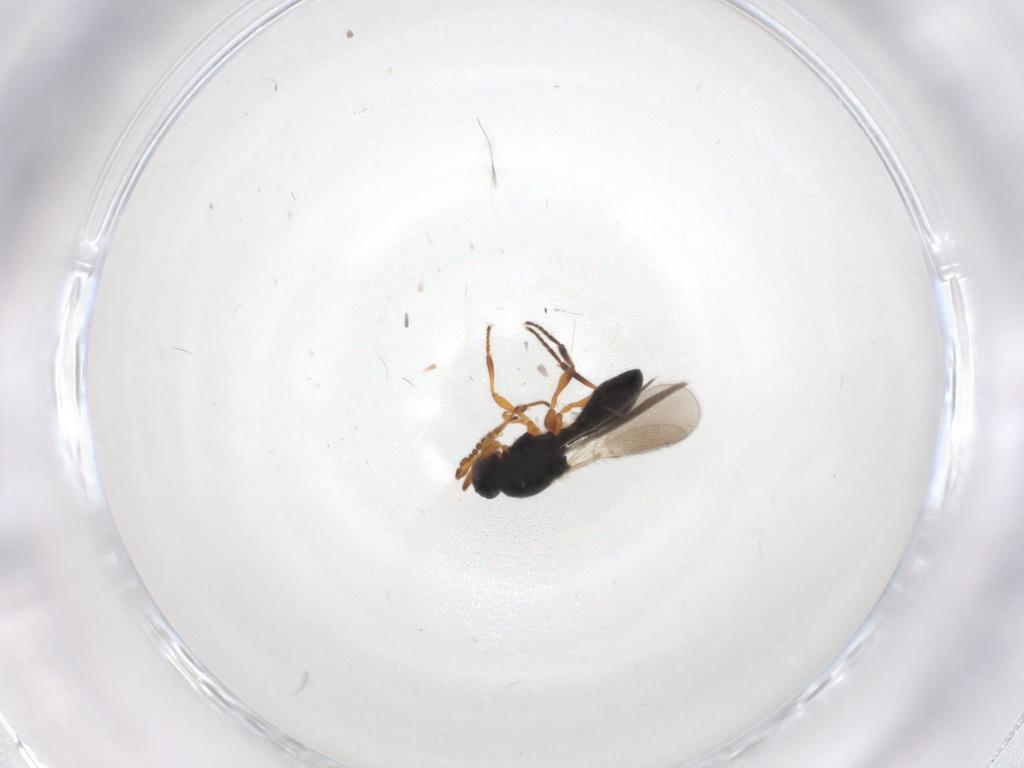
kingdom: Animalia
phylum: Arthropoda
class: Insecta
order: Hymenoptera
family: Platygastridae
